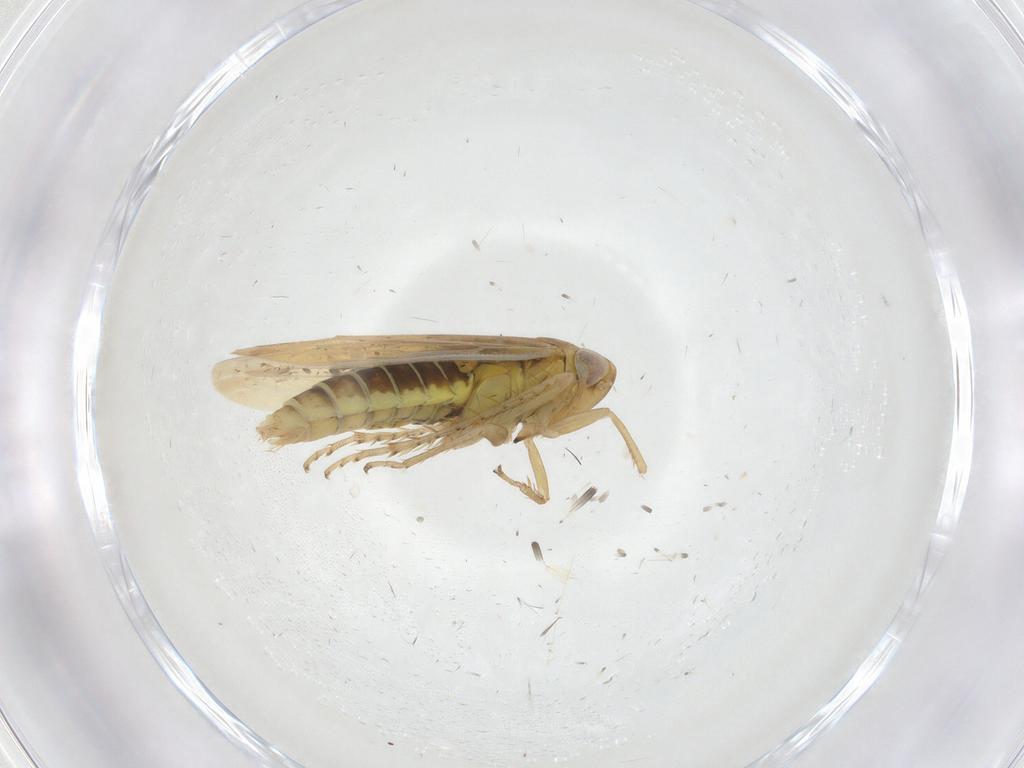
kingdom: Animalia
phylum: Arthropoda
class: Insecta
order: Hemiptera
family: Cicadellidae
